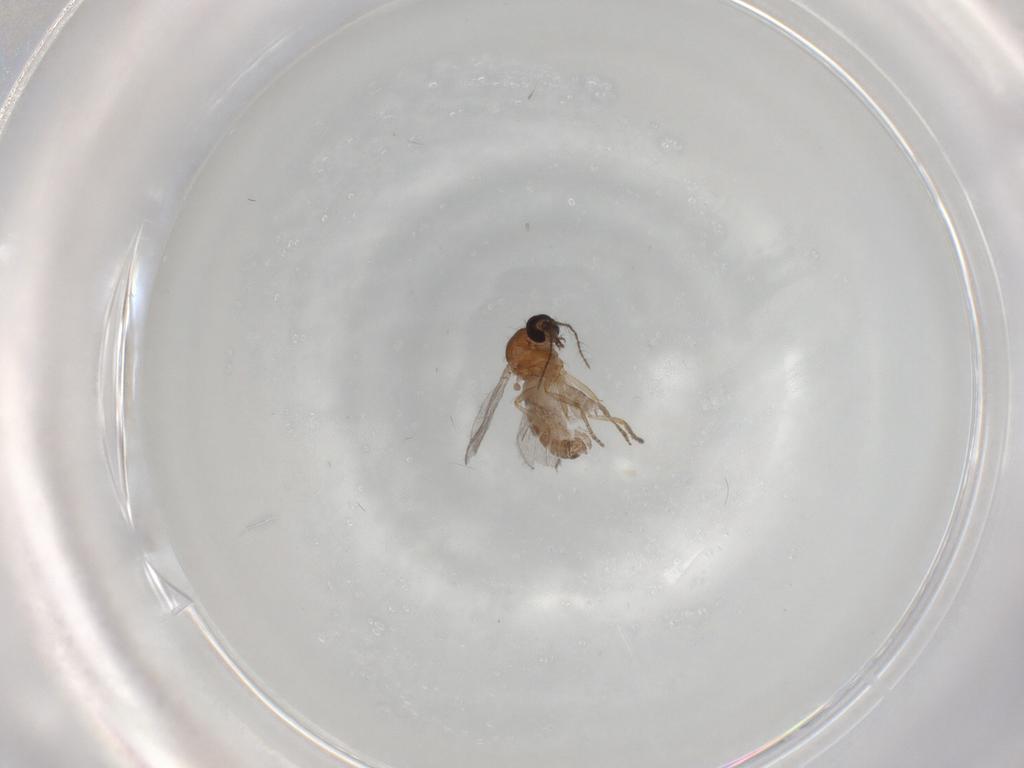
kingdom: Animalia
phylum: Arthropoda
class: Insecta
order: Diptera
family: Ceratopogonidae
